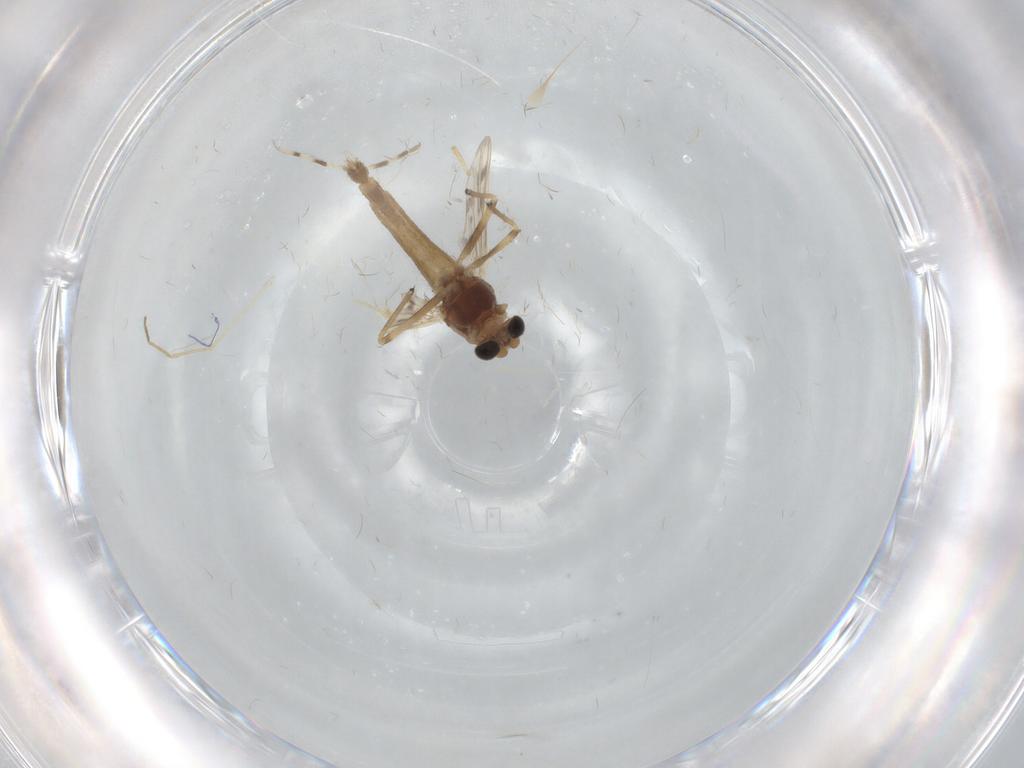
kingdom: Animalia
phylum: Arthropoda
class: Insecta
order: Diptera
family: Chironomidae
